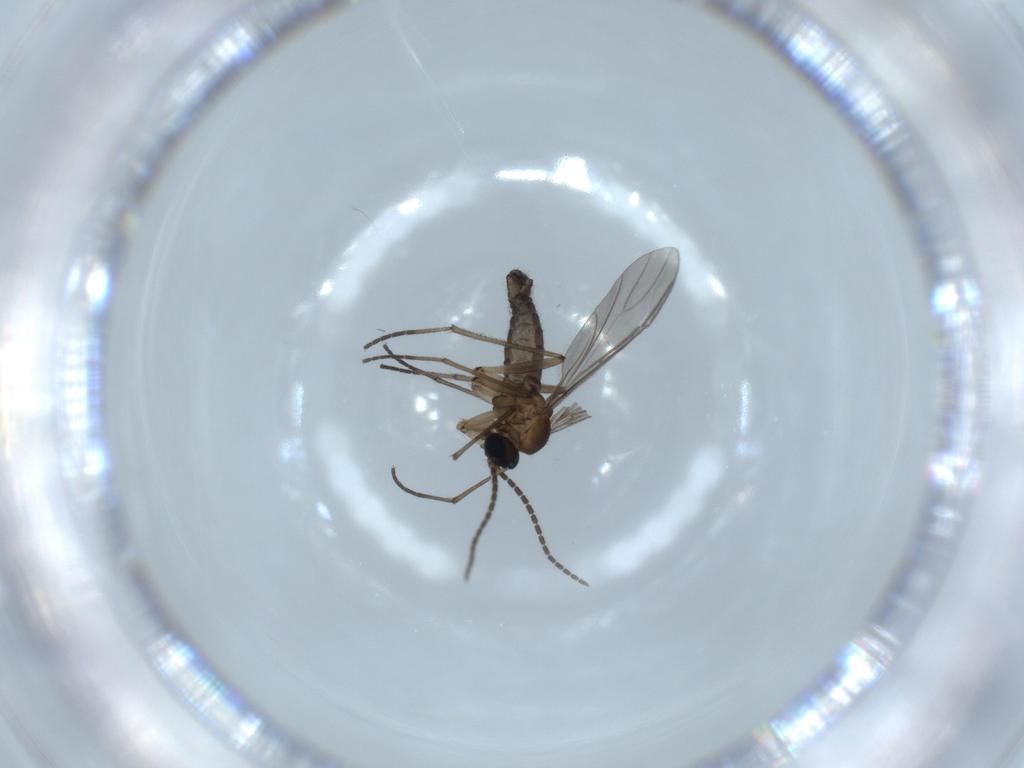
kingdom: Animalia
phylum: Arthropoda
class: Insecta
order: Diptera
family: Sciaridae
